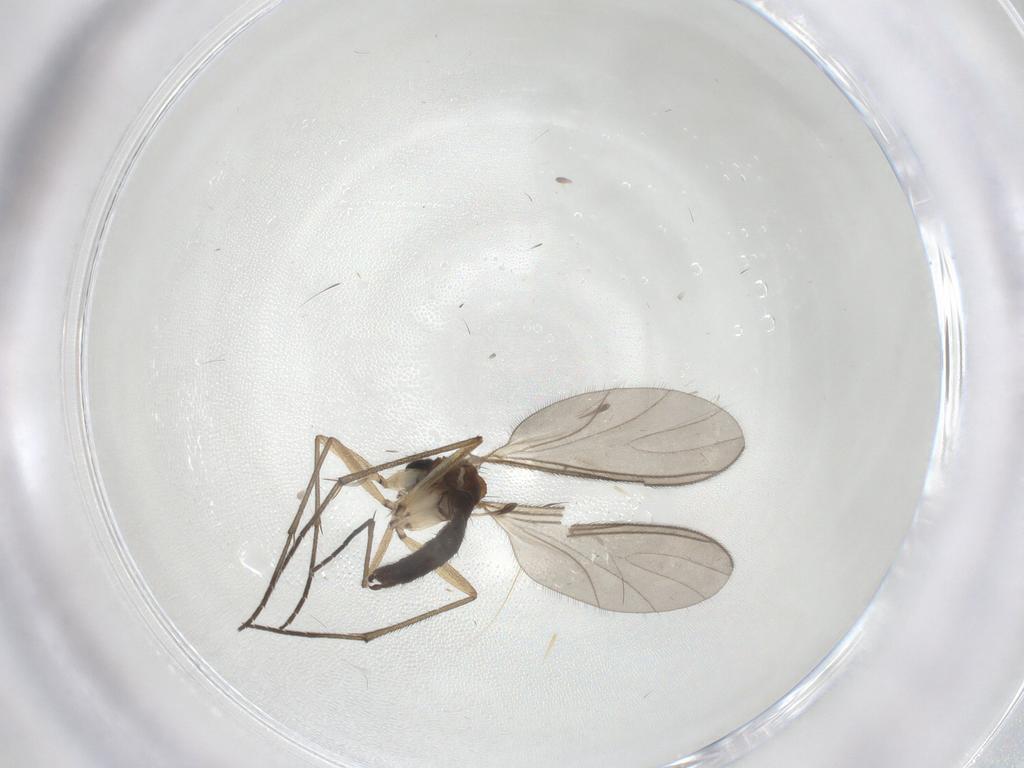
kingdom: Animalia
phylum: Arthropoda
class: Insecta
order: Diptera
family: Sciaridae
